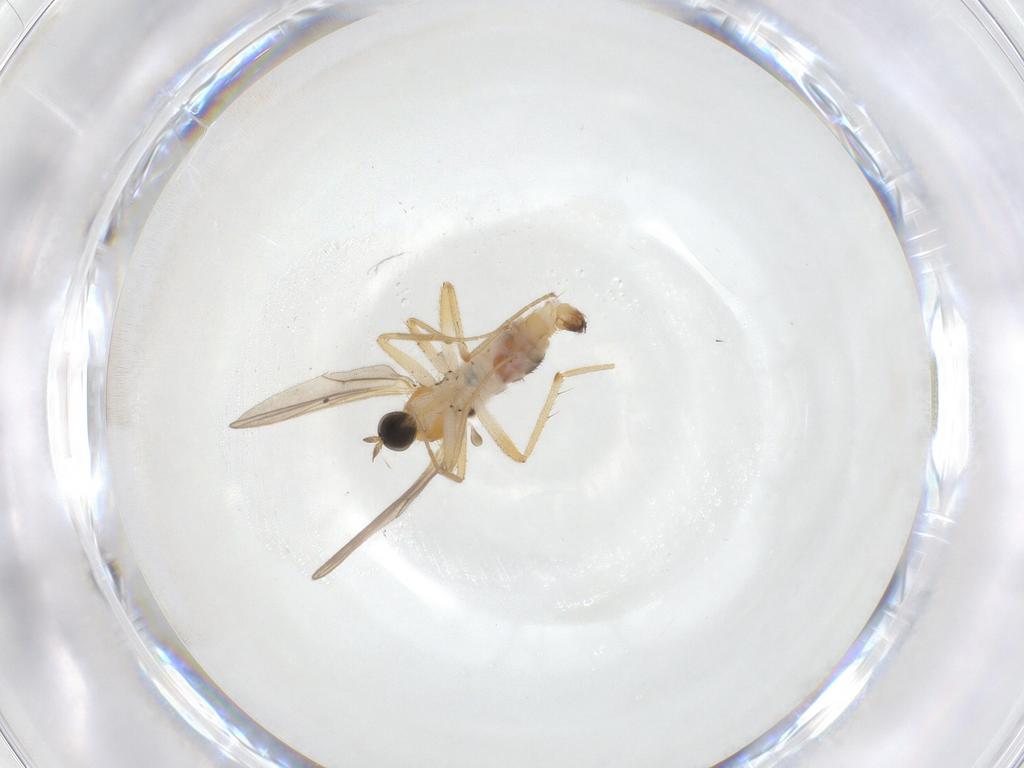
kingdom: Animalia
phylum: Arthropoda
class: Insecta
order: Diptera
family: Hybotidae
